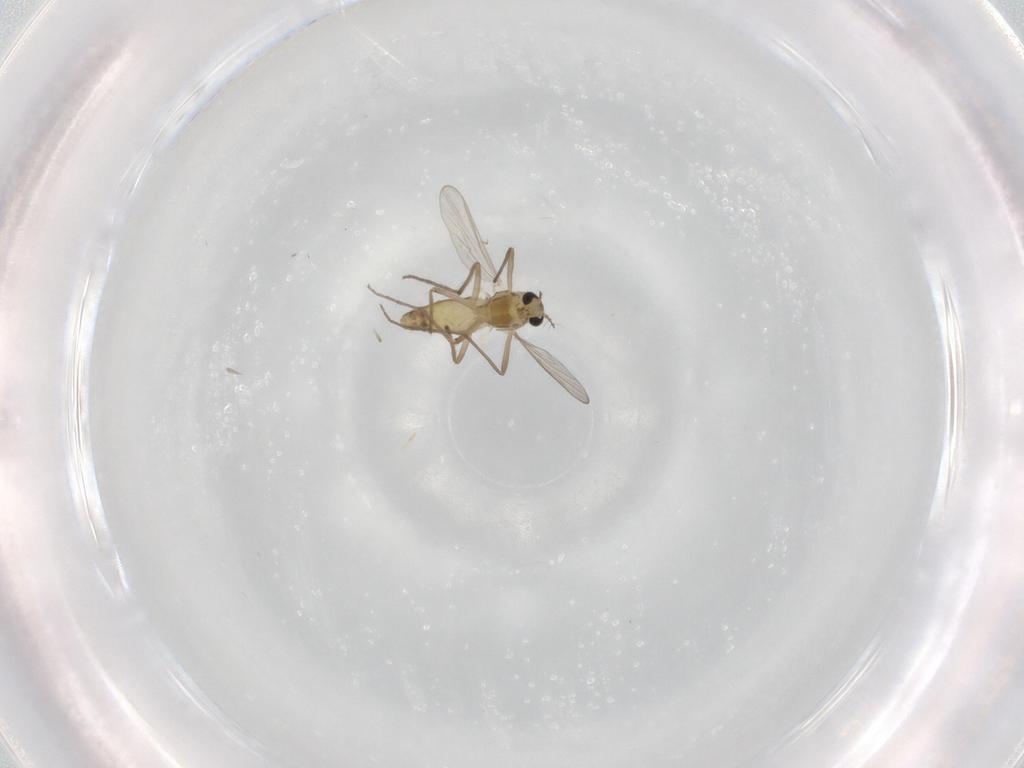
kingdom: Animalia
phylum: Arthropoda
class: Insecta
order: Diptera
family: Chironomidae
